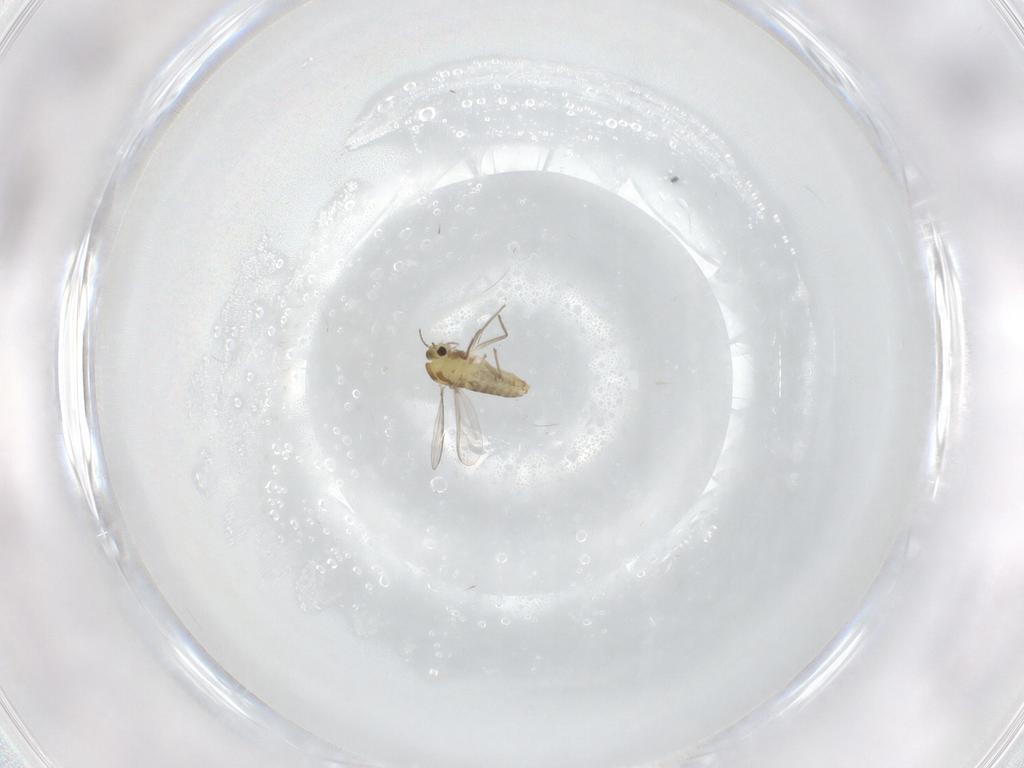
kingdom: Animalia
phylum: Arthropoda
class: Insecta
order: Diptera
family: Chironomidae
